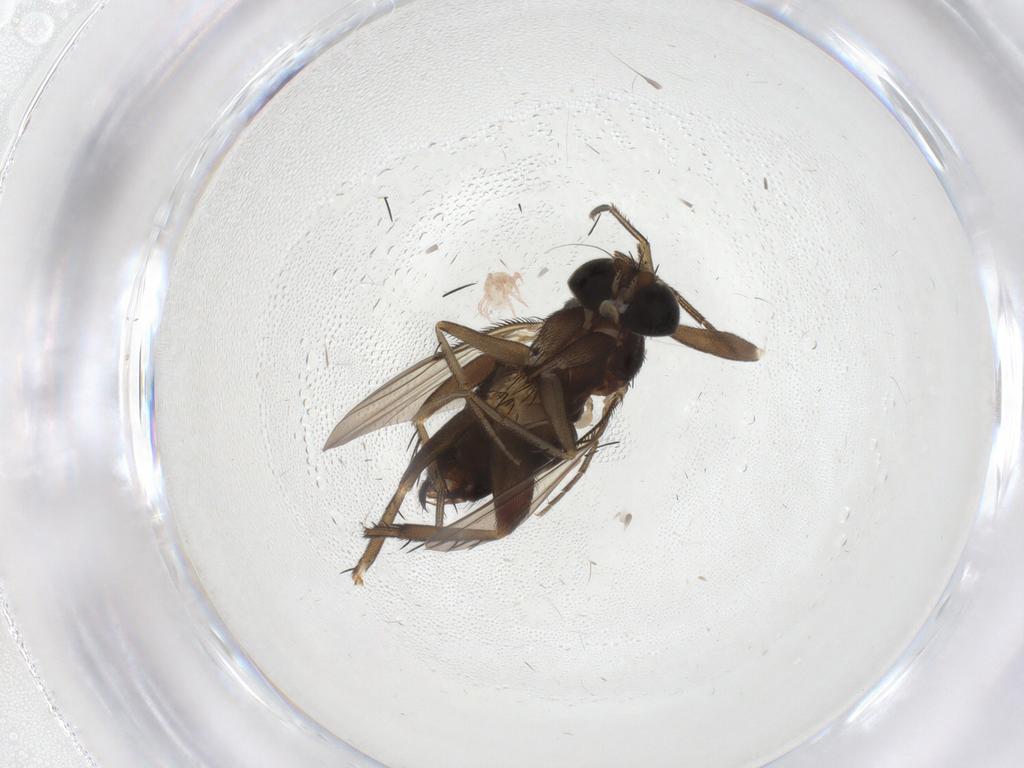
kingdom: Animalia
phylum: Arthropoda
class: Insecta
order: Diptera
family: Phoridae
